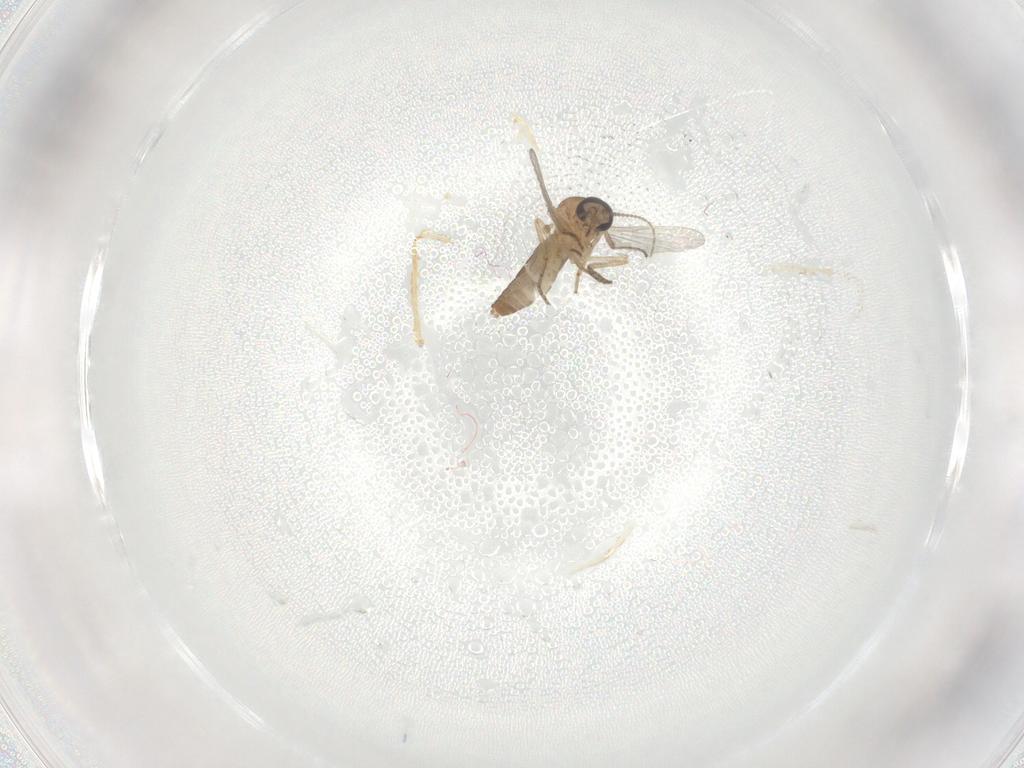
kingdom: Animalia
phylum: Arthropoda
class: Insecta
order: Diptera
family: Ceratopogonidae
